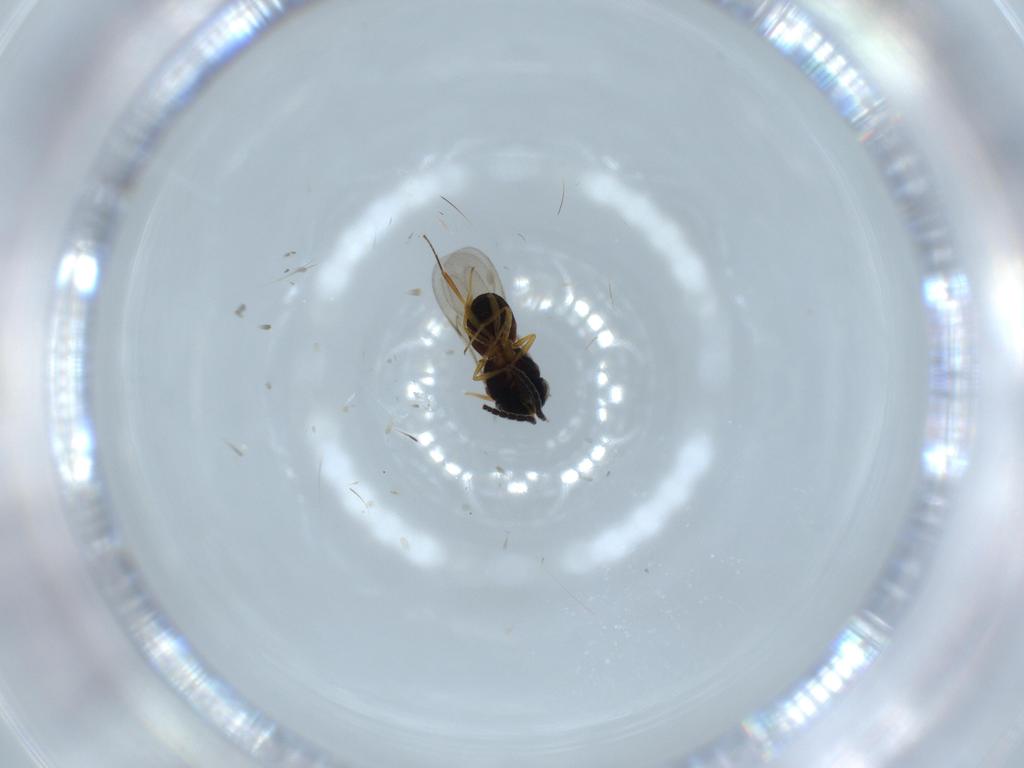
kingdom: Animalia
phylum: Arthropoda
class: Insecta
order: Hymenoptera
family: Scelionidae
